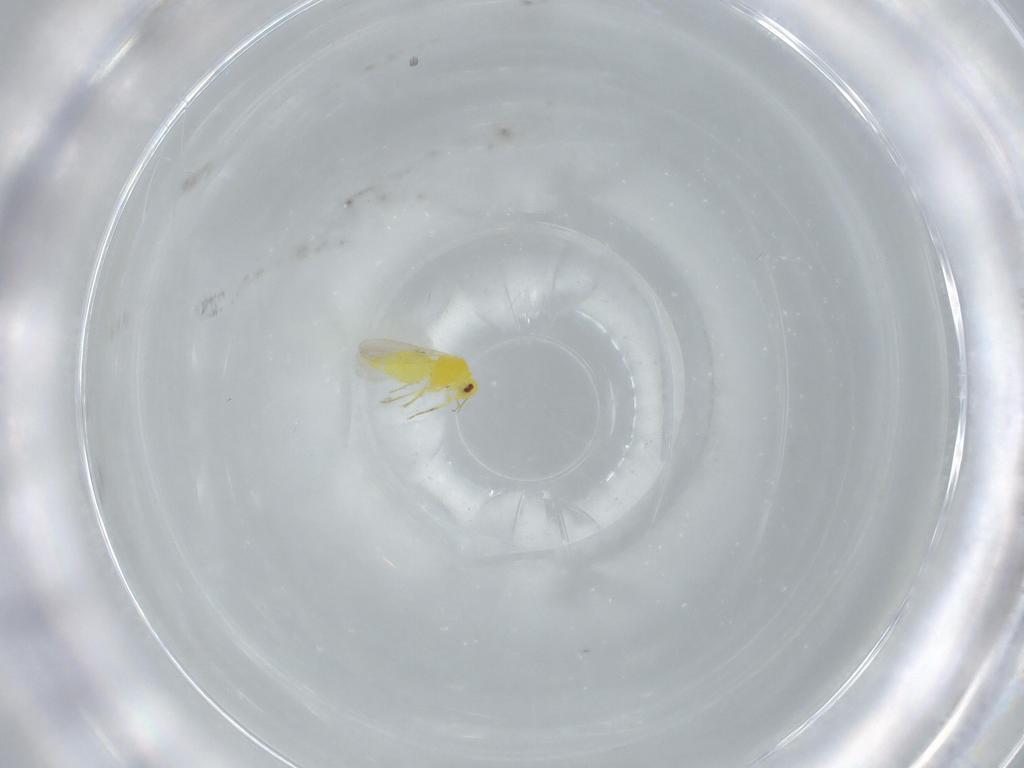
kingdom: Animalia
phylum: Arthropoda
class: Insecta
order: Hemiptera
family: Aleyrodidae
